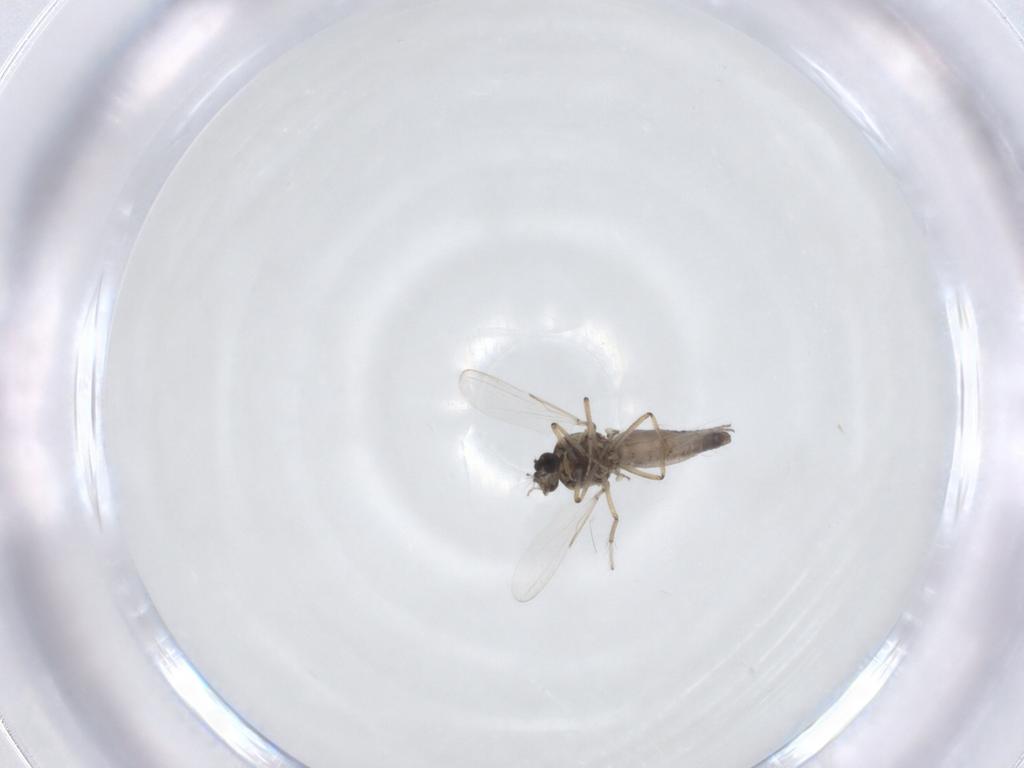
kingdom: Animalia
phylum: Arthropoda
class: Insecta
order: Diptera
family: Ceratopogonidae
